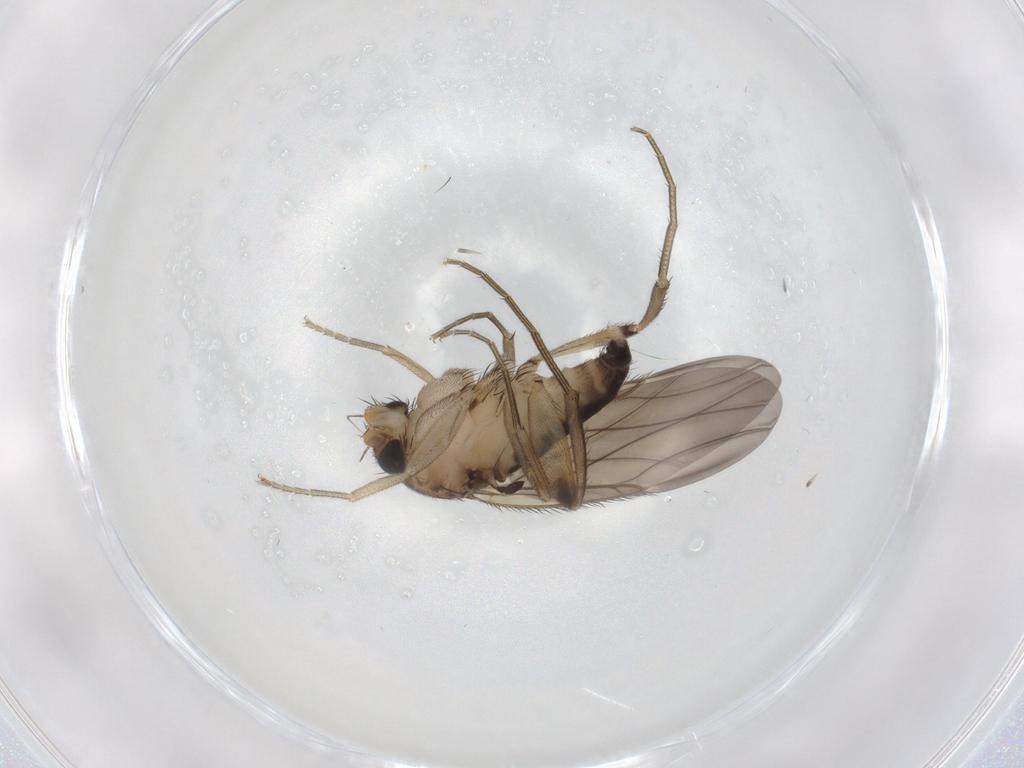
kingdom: Animalia
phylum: Arthropoda
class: Insecta
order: Diptera
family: Phoridae
